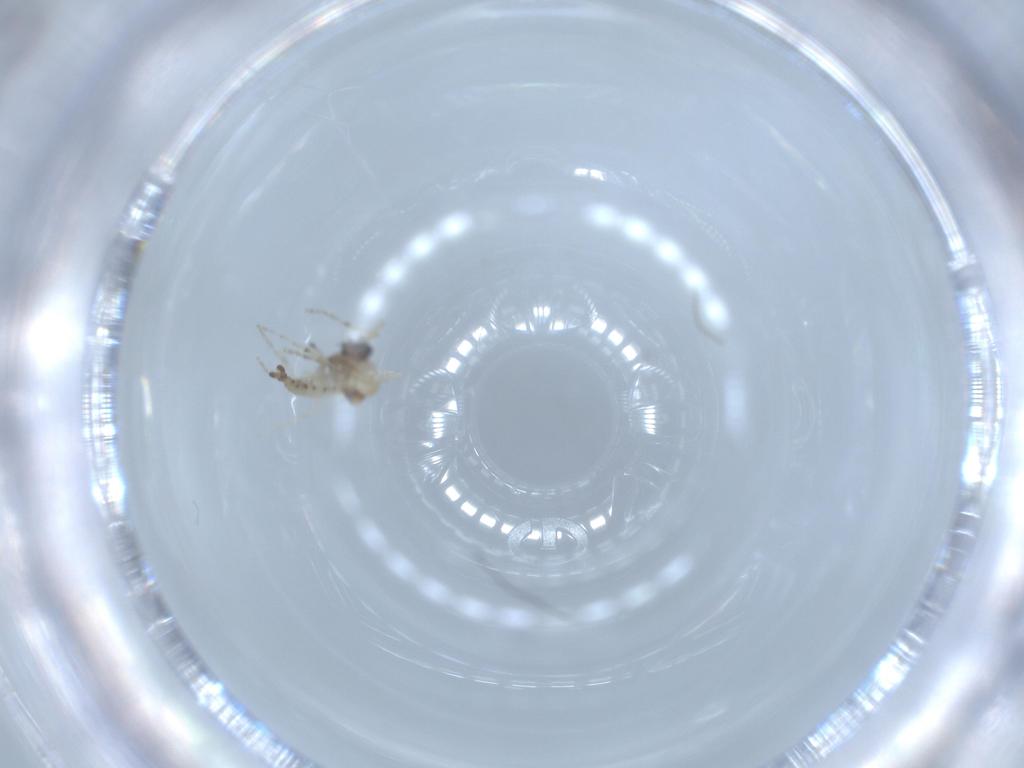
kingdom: Animalia
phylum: Arthropoda
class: Insecta
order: Diptera
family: Ceratopogonidae
